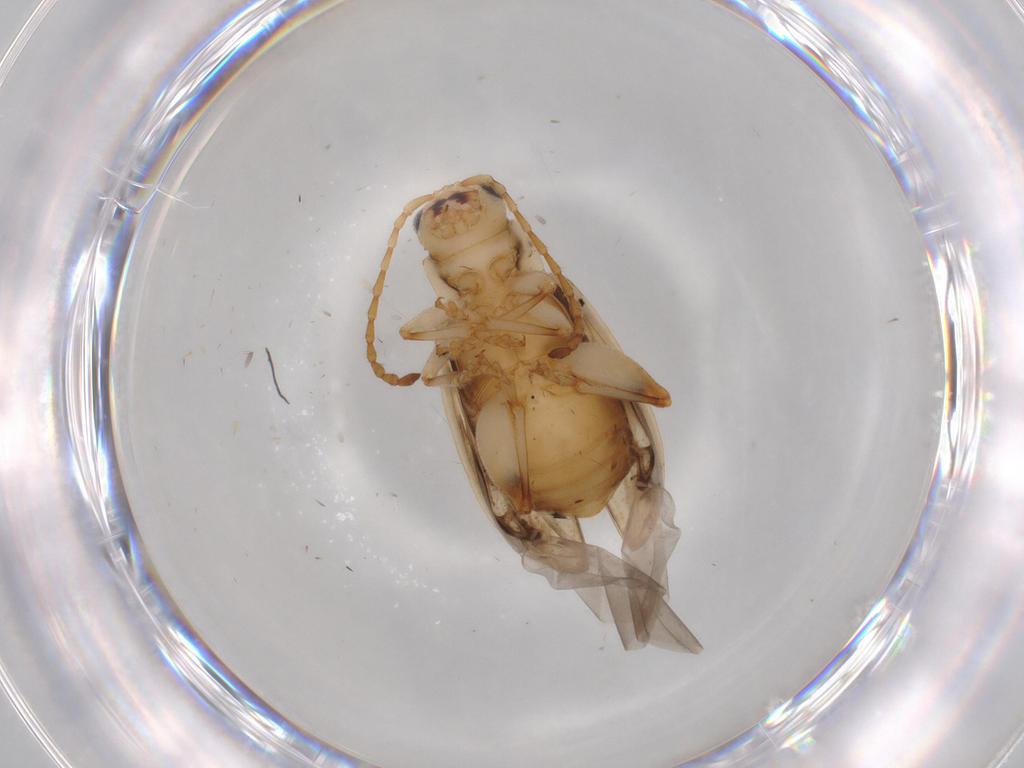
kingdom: Animalia
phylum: Arthropoda
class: Insecta
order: Coleoptera
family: Chrysomelidae
